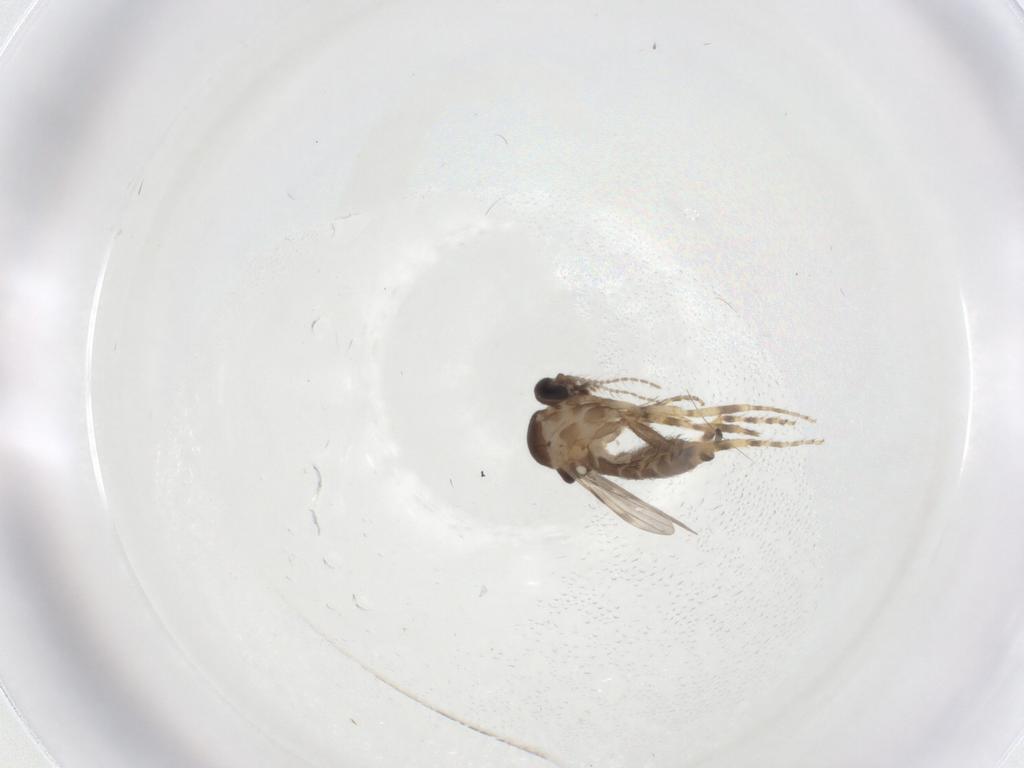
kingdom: Animalia
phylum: Arthropoda
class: Insecta
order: Diptera
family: Ceratopogonidae
